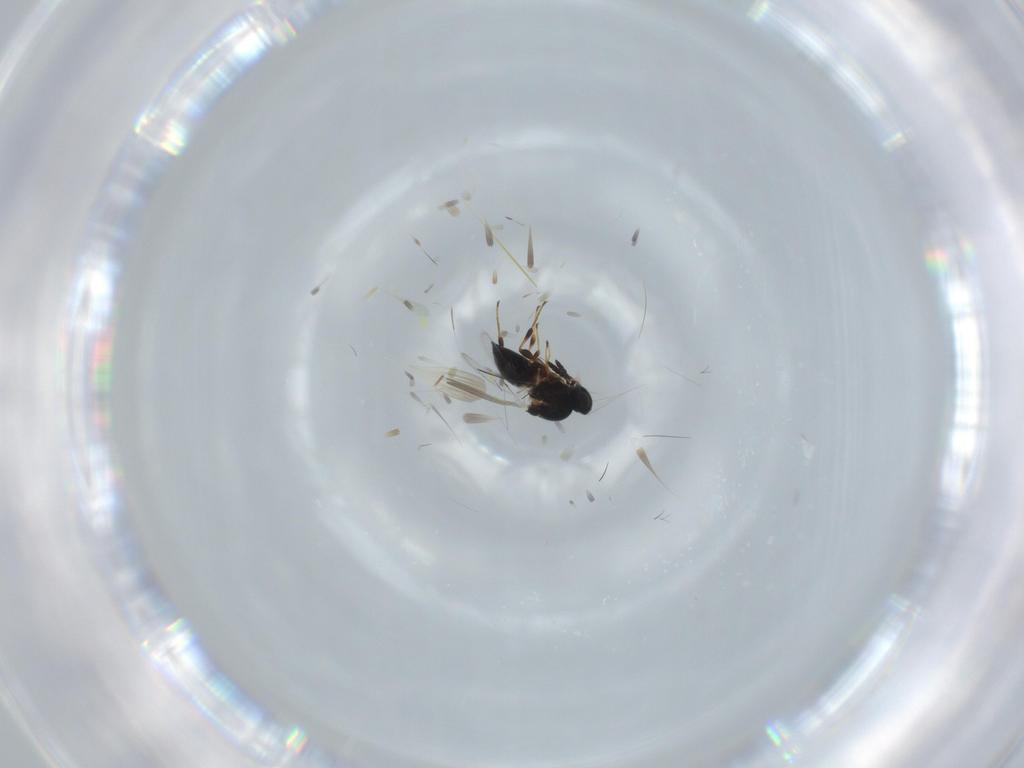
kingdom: Animalia
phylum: Arthropoda
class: Insecta
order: Hymenoptera
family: Platygastridae
